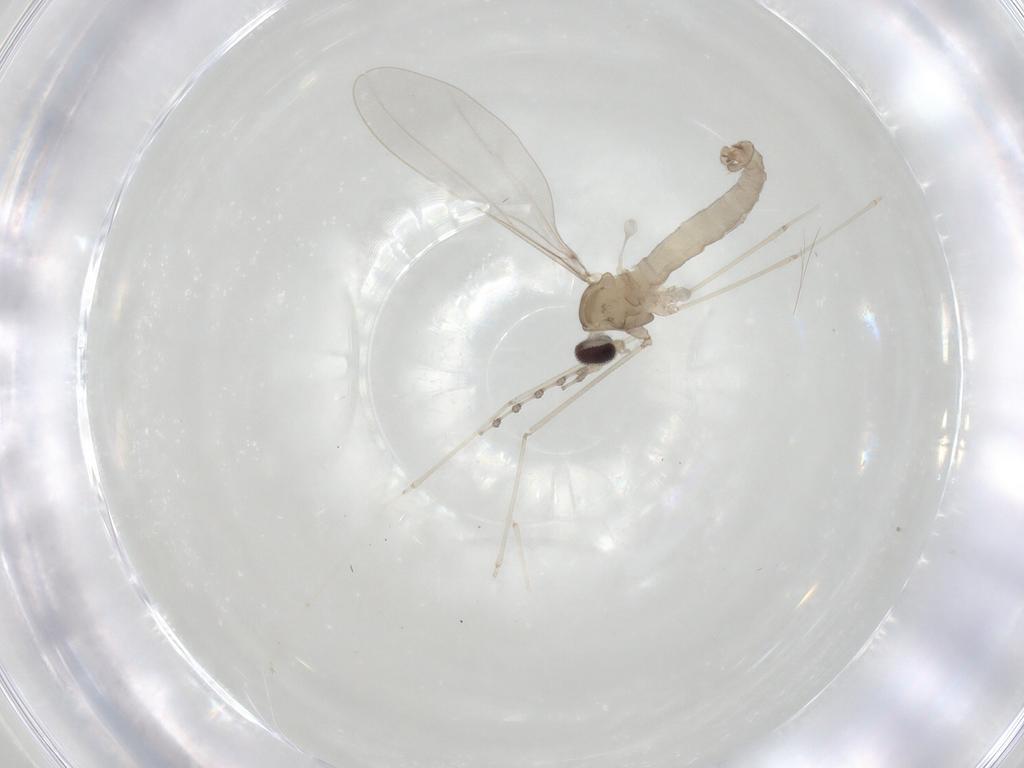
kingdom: Animalia
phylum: Arthropoda
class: Insecta
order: Diptera
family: Cecidomyiidae
